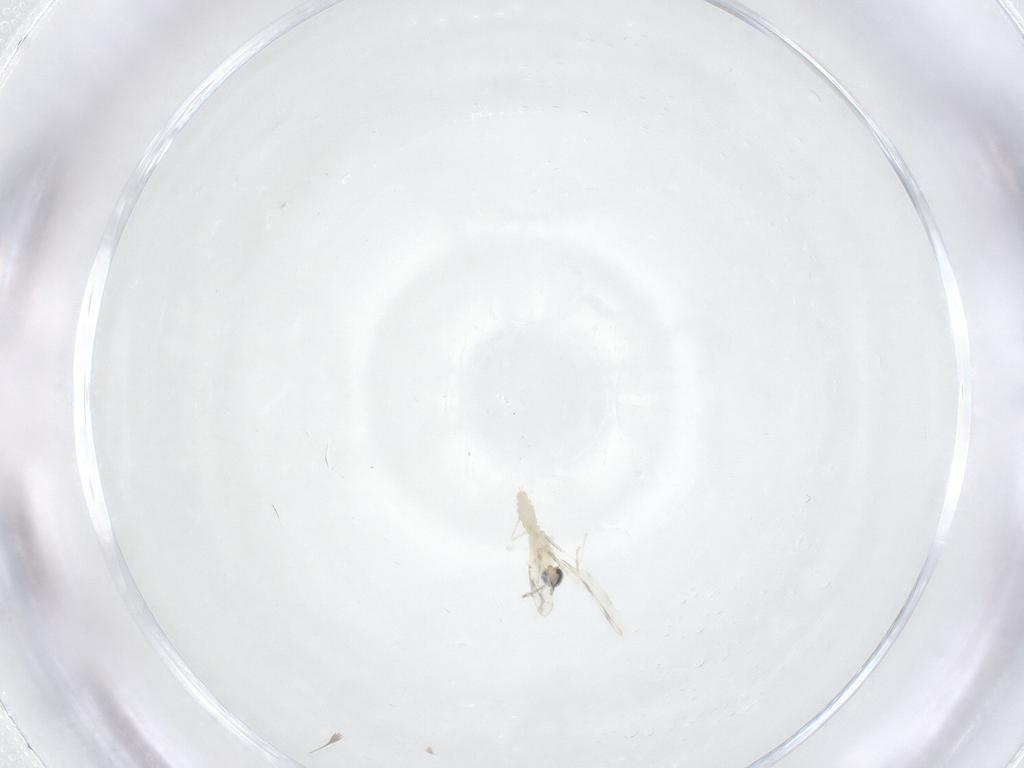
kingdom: Animalia
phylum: Arthropoda
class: Insecta
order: Diptera
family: Cecidomyiidae
